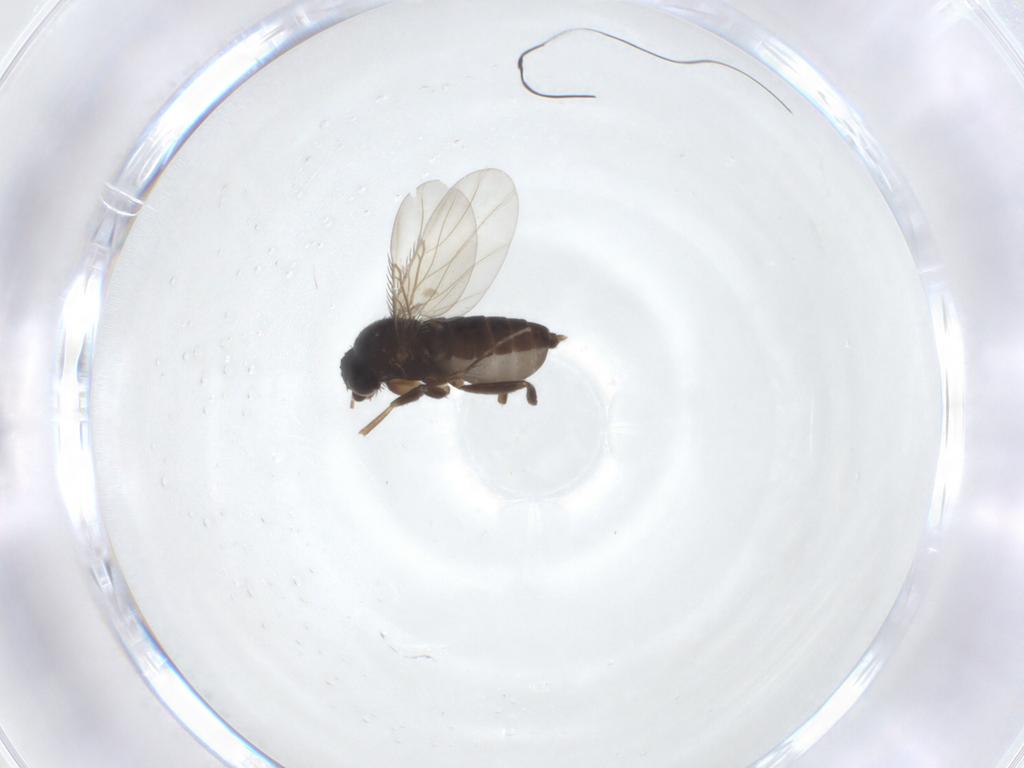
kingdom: Animalia
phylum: Arthropoda
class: Insecta
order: Diptera
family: Phoridae
